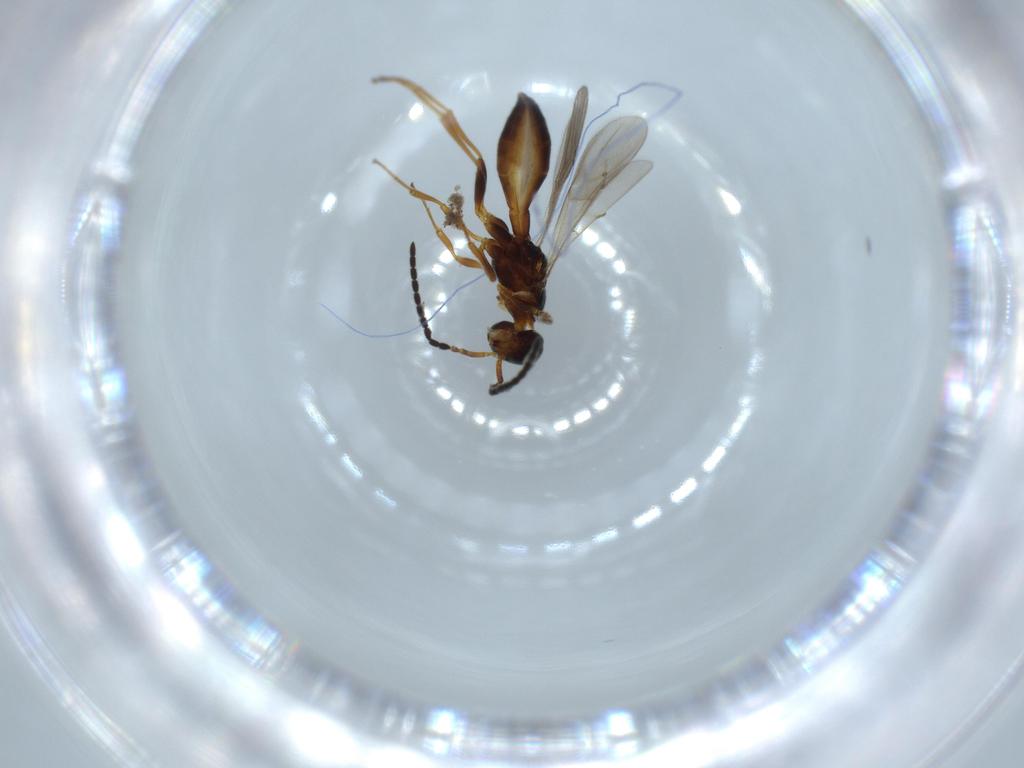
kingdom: Animalia
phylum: Arthropoda
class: Insecta
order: Hymenoptera
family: Scelionidae
